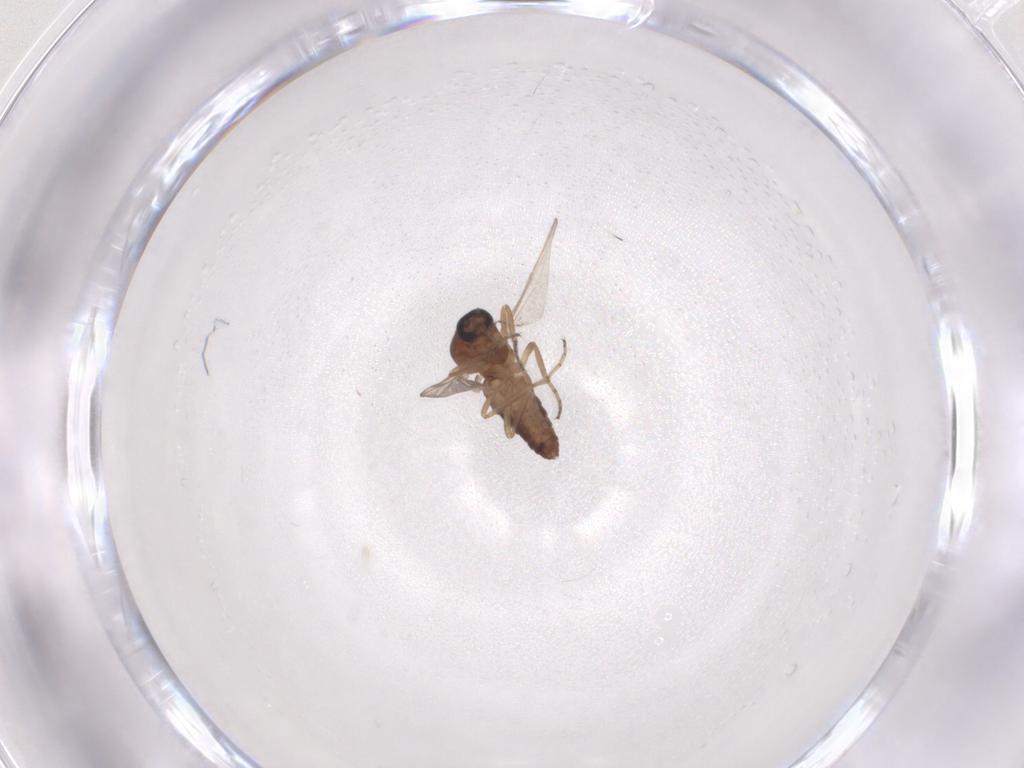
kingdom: Animalia
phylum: Arthropoda
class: Insecta
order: Diptera
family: Ceratopogonidae
